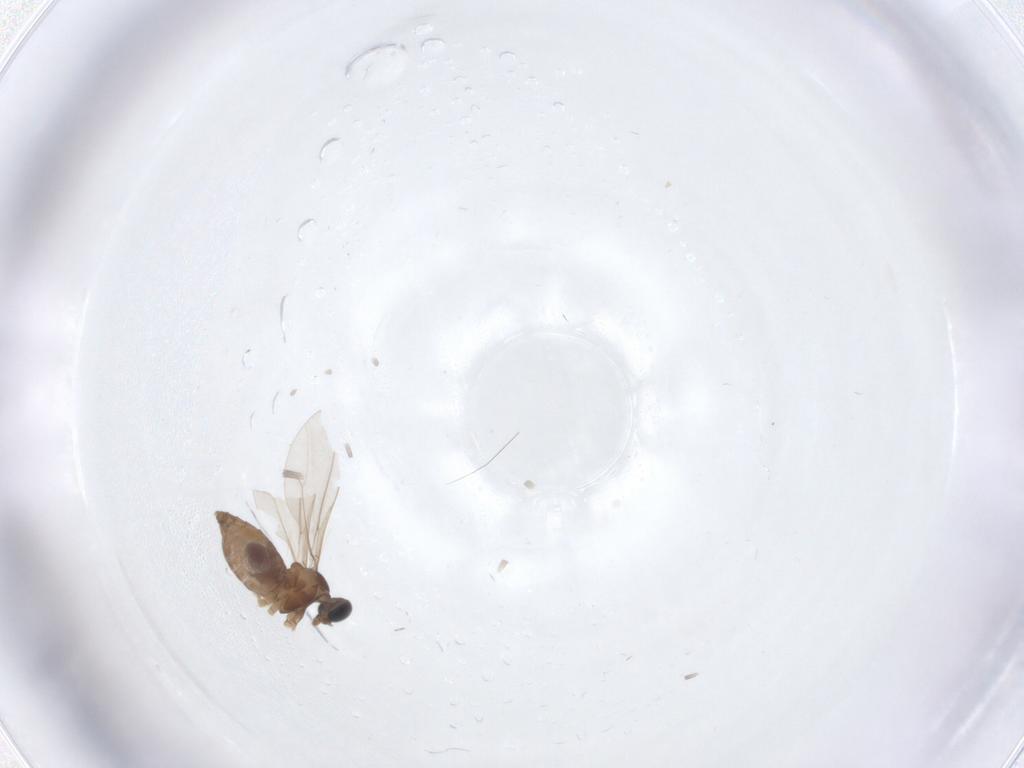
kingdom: Animalia
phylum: Arthropoda
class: Insecta
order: Diptera
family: Cecidomyiidae
